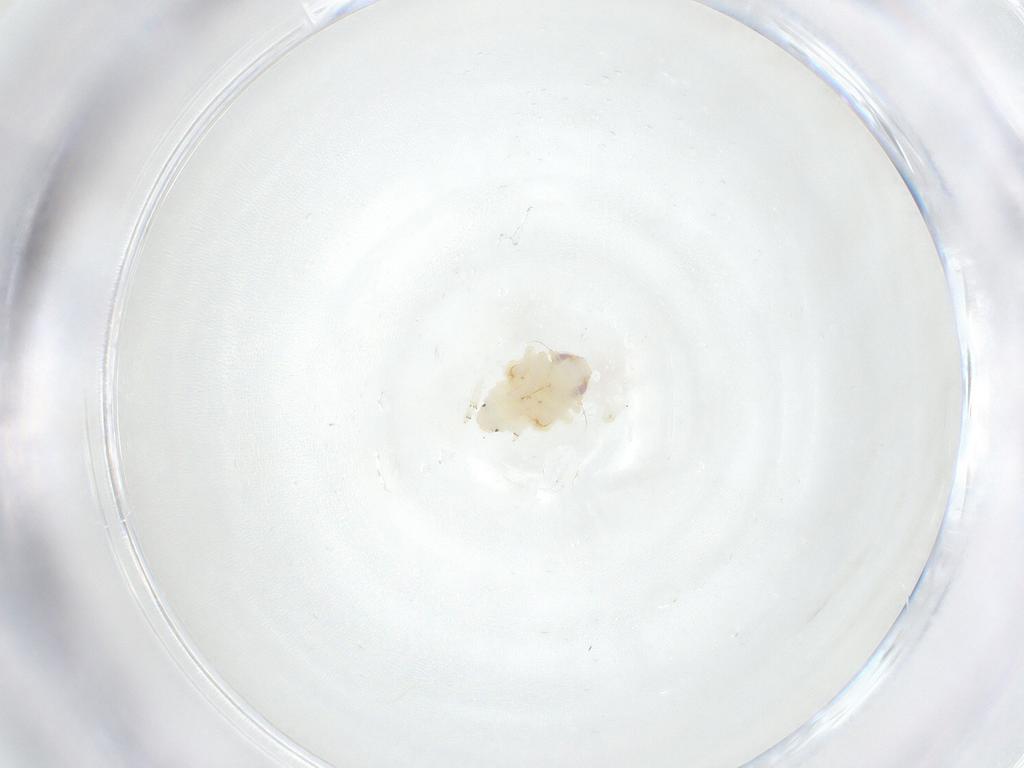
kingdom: Animalia
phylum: Arthropoda
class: Insecta
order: Hemiptera
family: Nogodinidae
